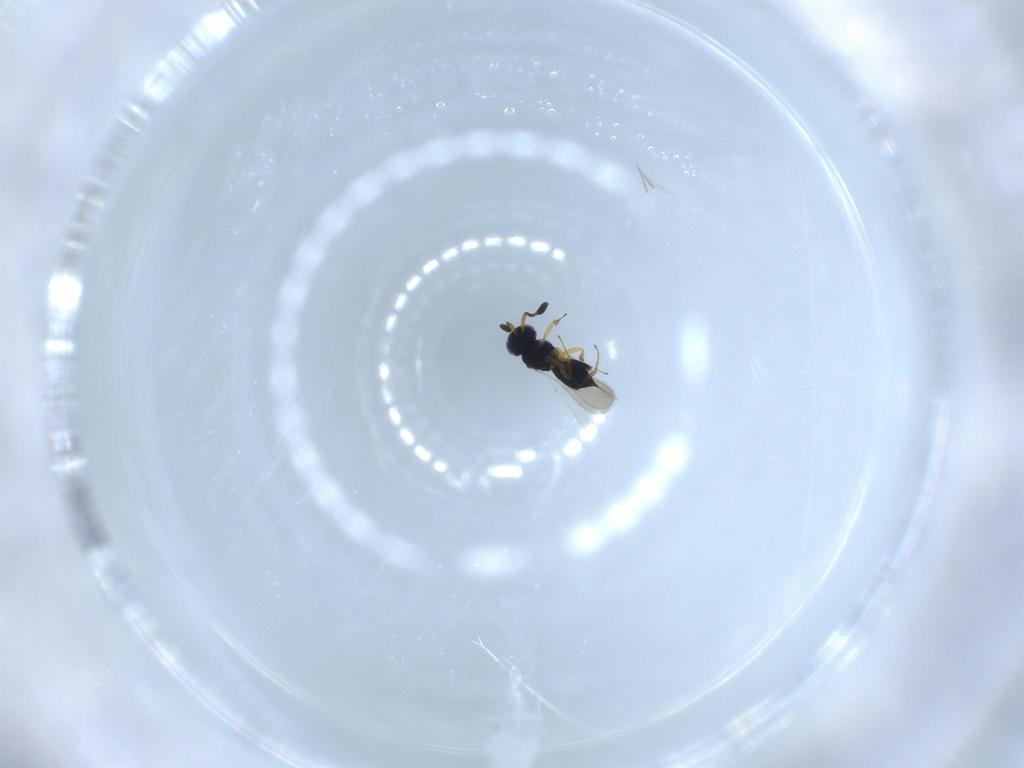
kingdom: Animalia
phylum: Arthropoda
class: Insecta
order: Hymenoptera
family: Scelionidae
